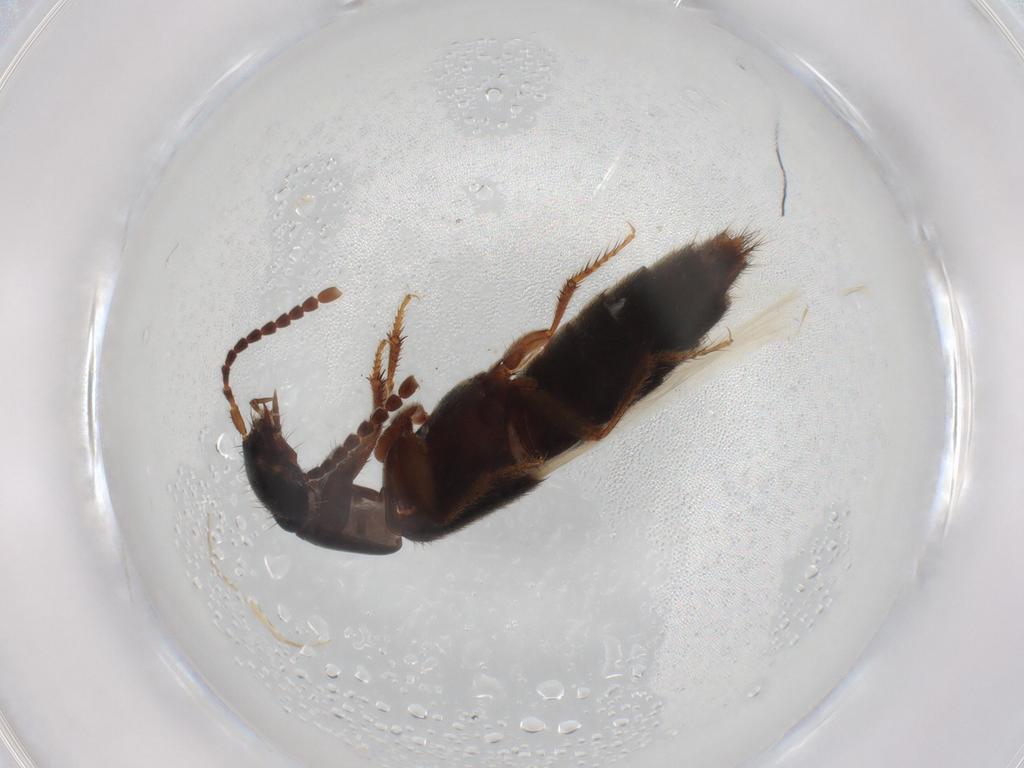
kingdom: Animalia
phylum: Arthropoda
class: Insecta
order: Coleoptera
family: Staphylinidae
